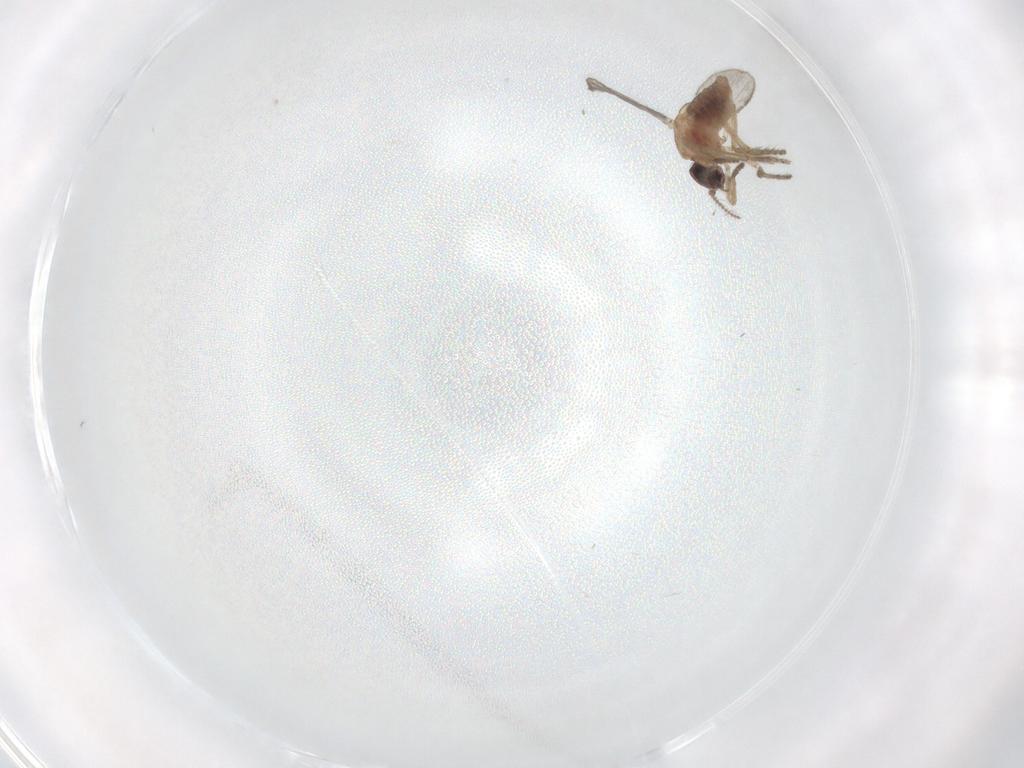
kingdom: Animalia
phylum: Arthropoda
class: Insecta
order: Diptera
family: Ceratopogonidae
